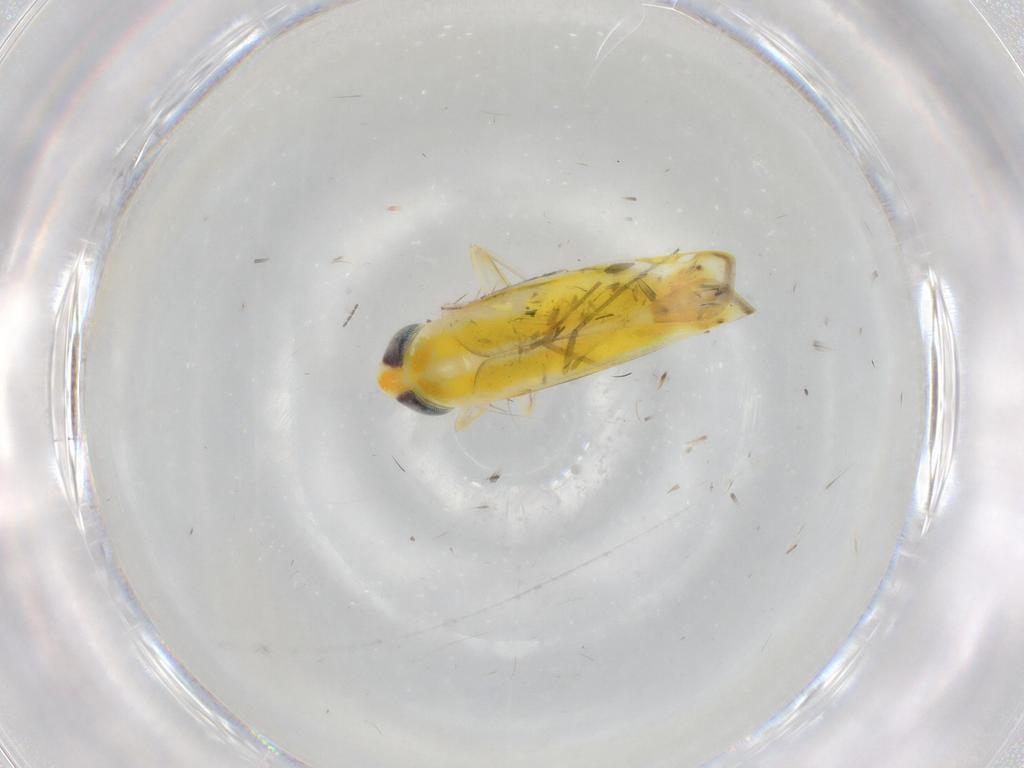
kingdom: Animalia
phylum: Arthropoda
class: Insecta
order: Hemiptera
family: Cicadellidae
